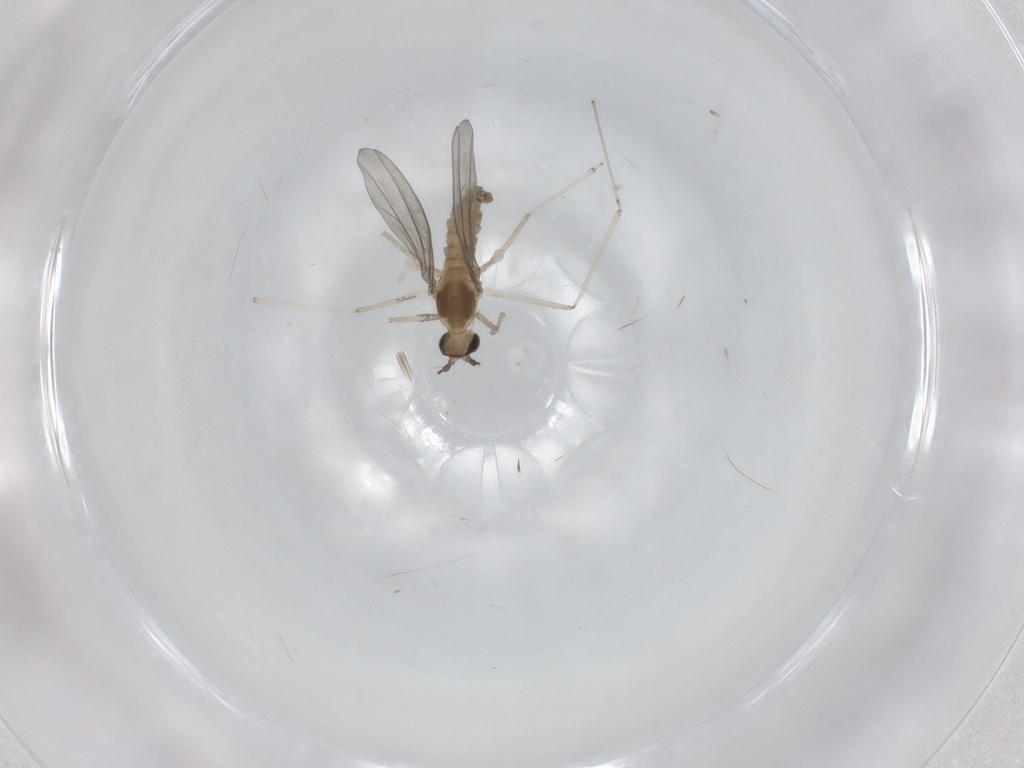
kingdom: Animalia
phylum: Arthropoda
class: Insecta
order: Diptera
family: Cecidomyiidae
